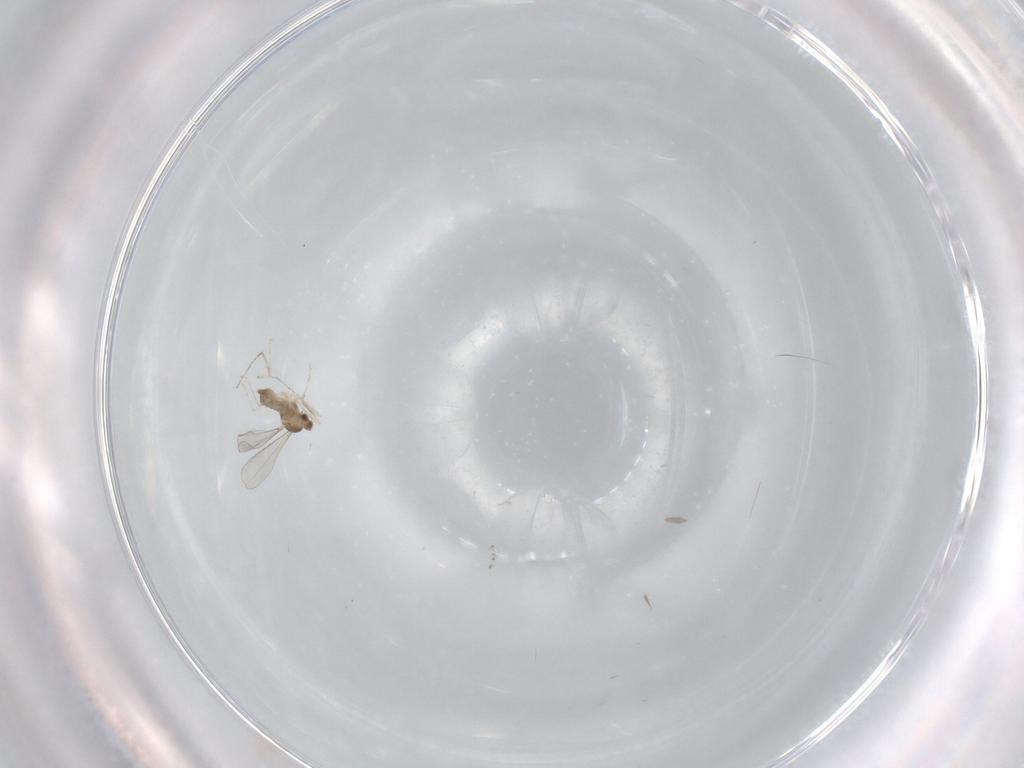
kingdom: Animalia
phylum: Arthropoda
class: Insecta
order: Diptera
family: Cecidomyiidae
